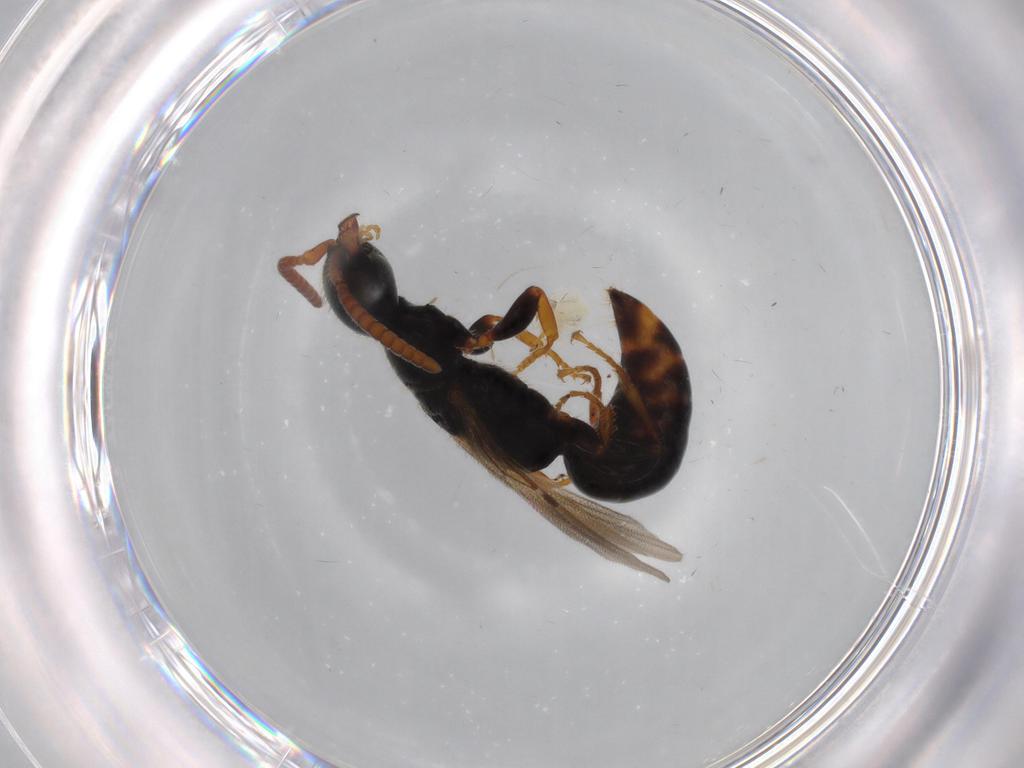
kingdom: Animalia
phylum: Arthropoda
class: Insecta
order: Hymenoptera
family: Bethylidae
